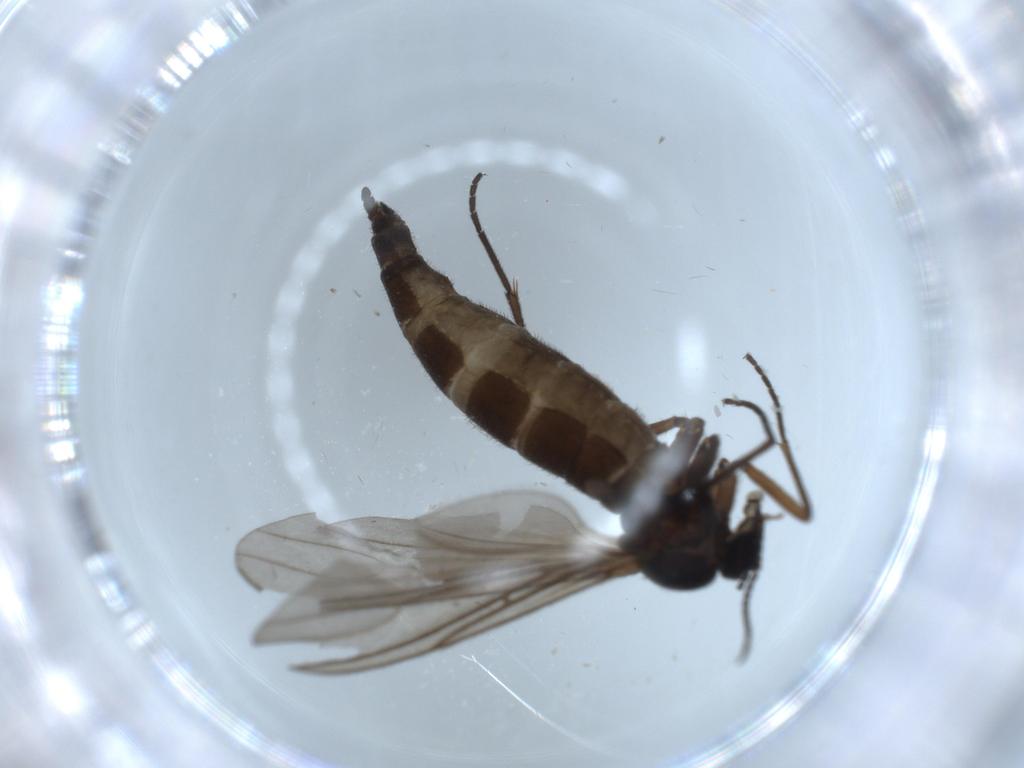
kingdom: Animalia
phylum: Arthropoda
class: Insecta
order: Diptera
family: Sciaridae
